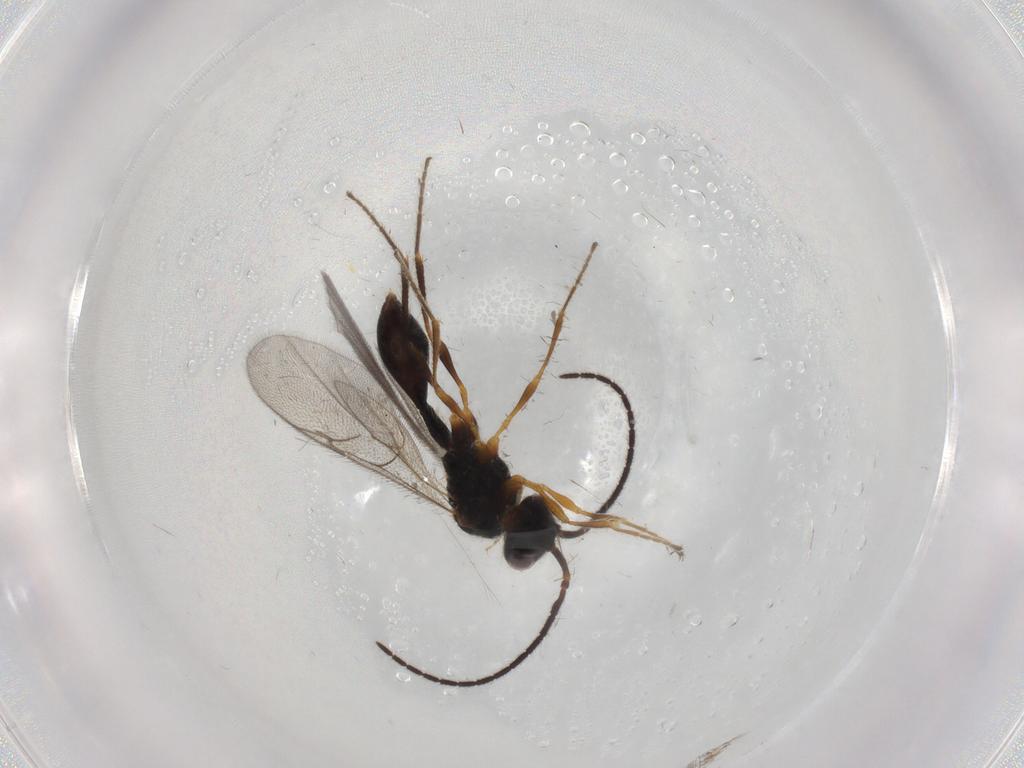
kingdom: Animalia
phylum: Arthropoda
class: Insecta
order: Hymenoptera
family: Diapriidae
